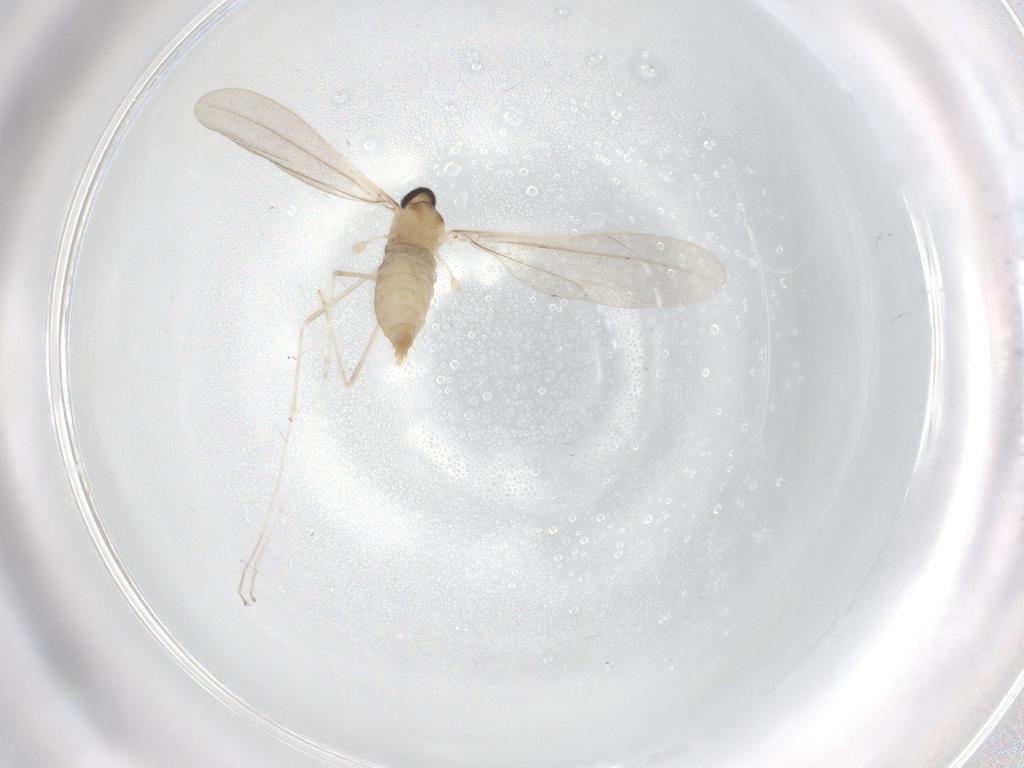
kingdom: Animalia
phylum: Arthropoda
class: Insecta
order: Diptera
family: Cecidomyiidae
